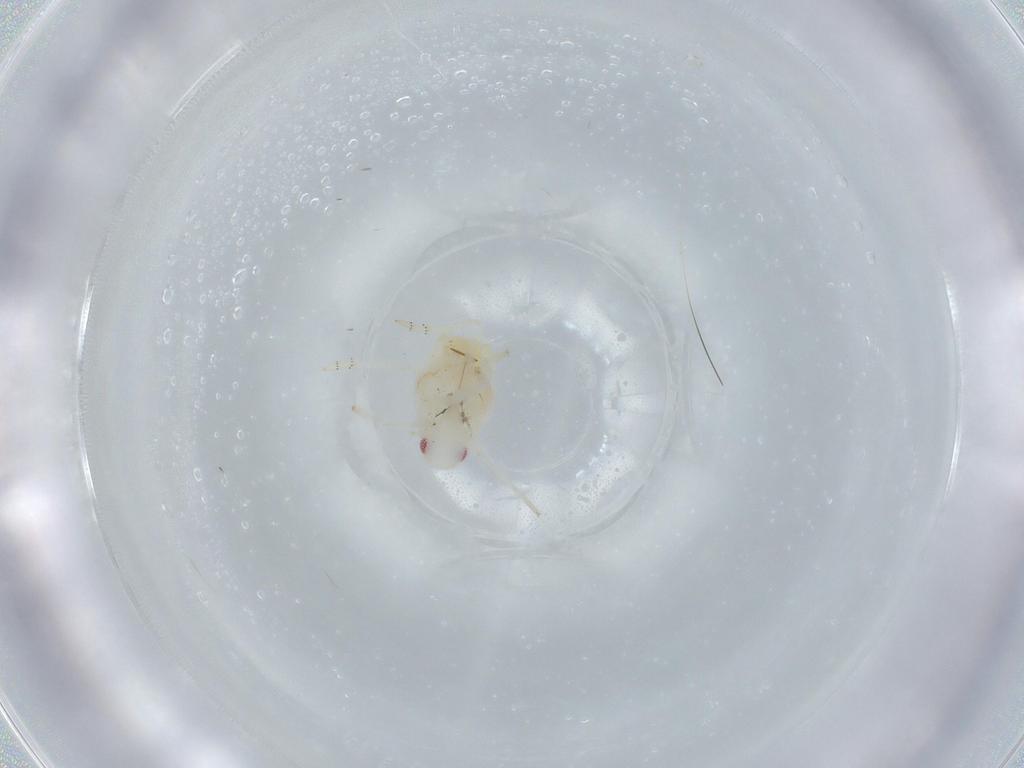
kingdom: Animalia
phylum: Arthropoda
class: Insecta
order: Hemiptera
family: Flatidae
